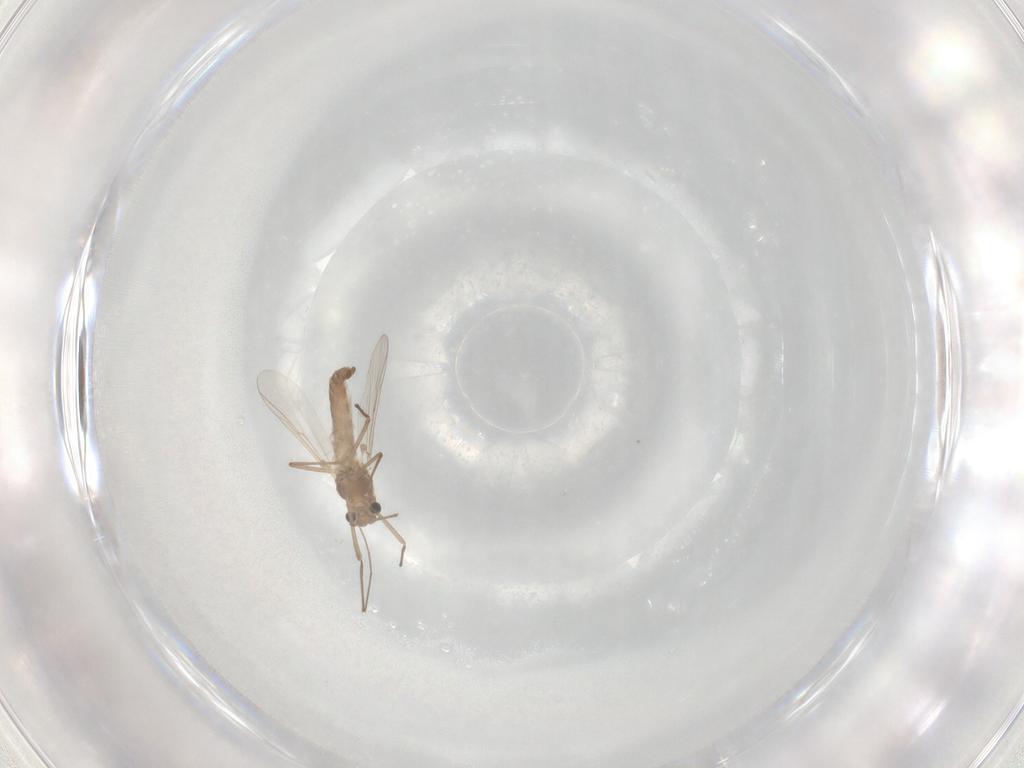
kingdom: Animalia
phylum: Arthropoda
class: Insecta
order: Diptera
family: Chironomidae
